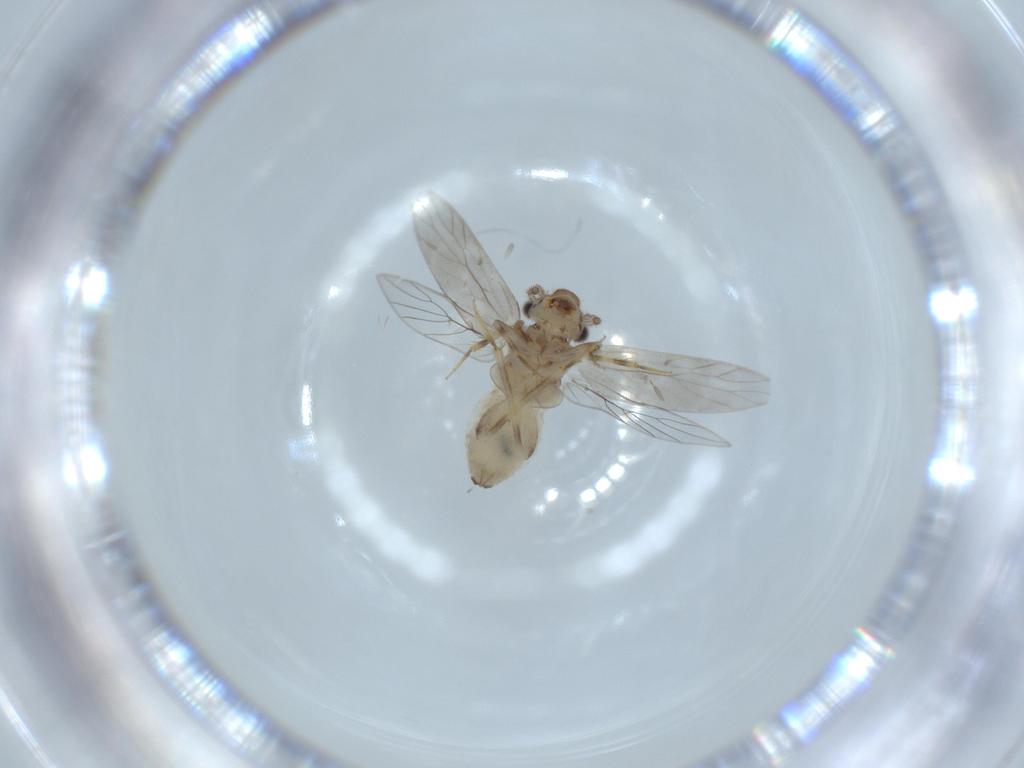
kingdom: Animalia
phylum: Arthropoda
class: Insecta
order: Psocodea
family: Lepidopsocidae
